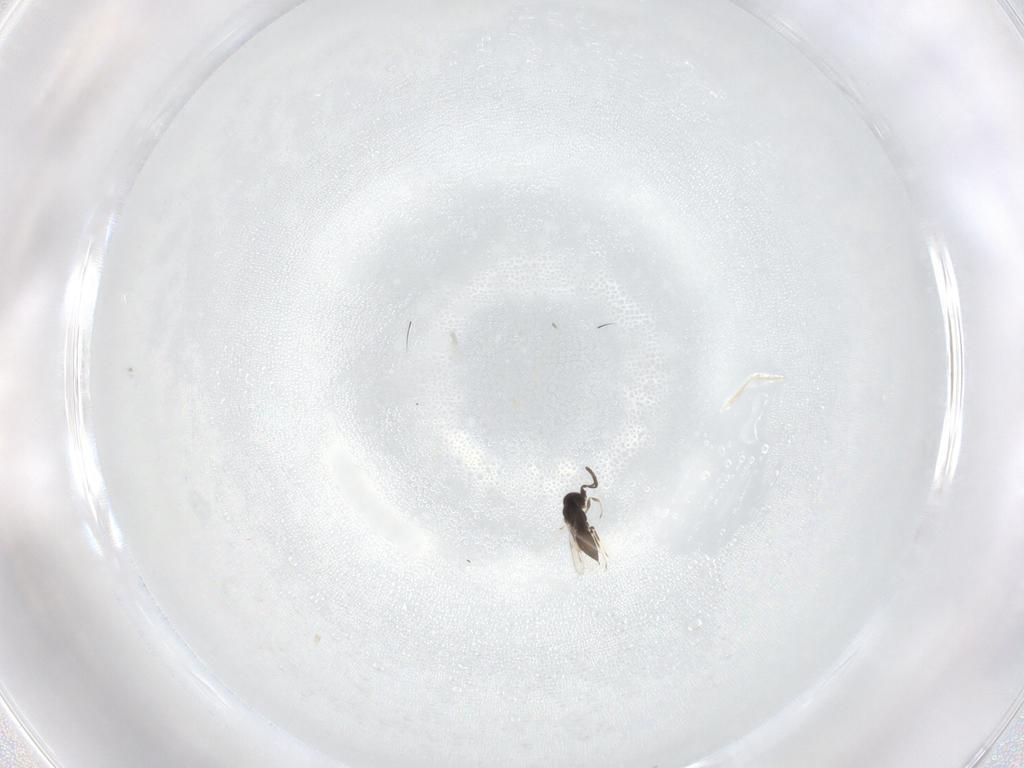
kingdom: Animalia
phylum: Arthropoda
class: Insecta
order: Hymenoptera
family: Scelionidae
